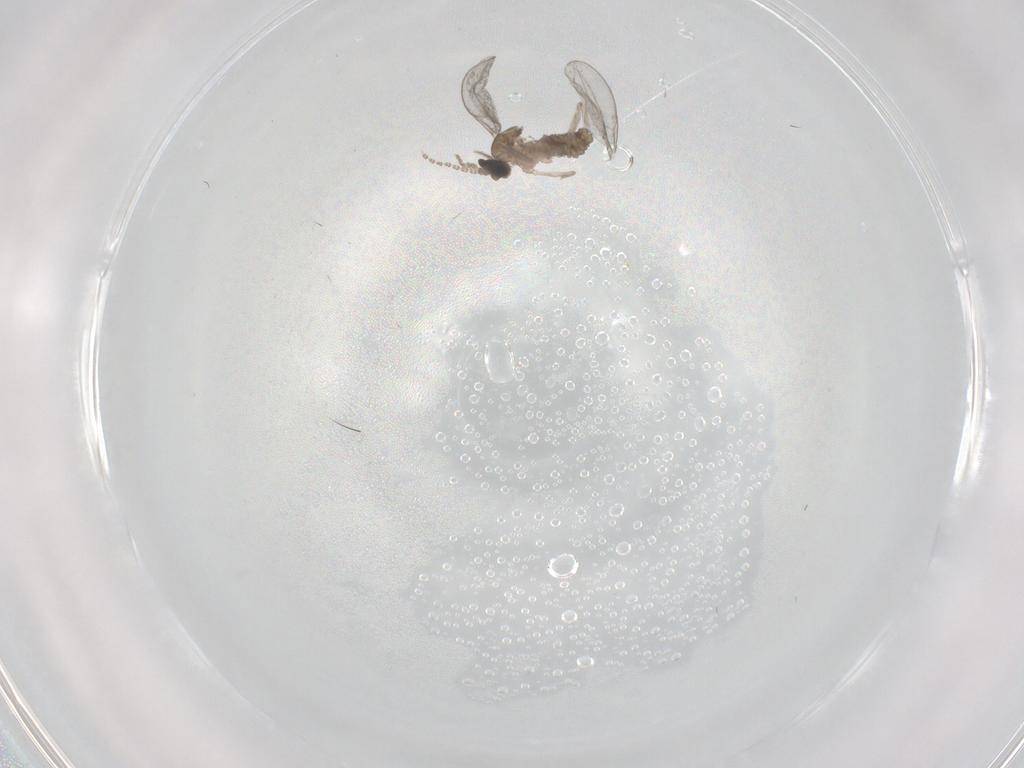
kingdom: Animalia
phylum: Arthropoda
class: Insecta
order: Diptera
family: Cecidomyiidae
